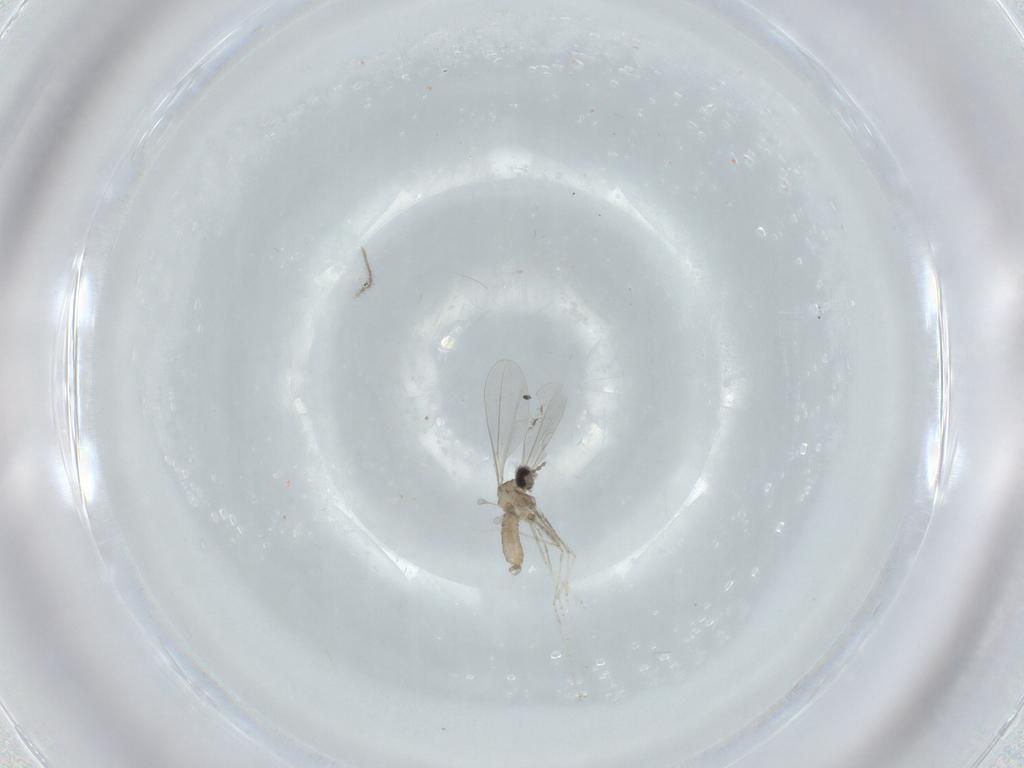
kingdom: Animalia
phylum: Arthropoda
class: Insecta
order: Diptera
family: Cecidomyiidae
